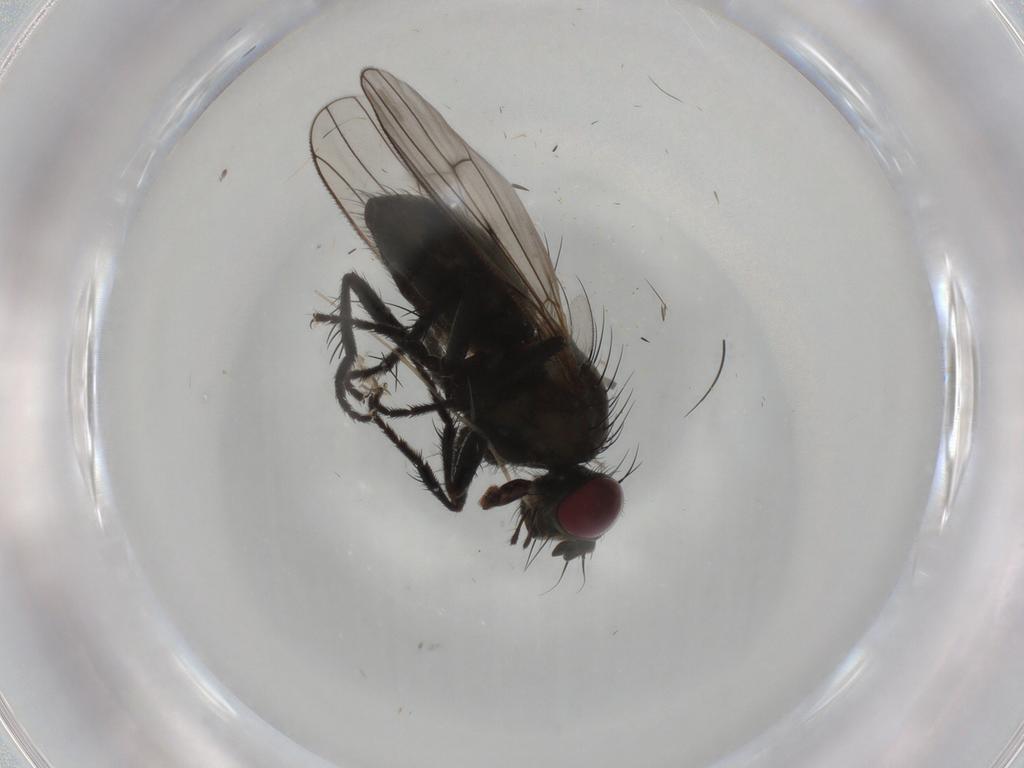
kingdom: Animalia
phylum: Arthropoda
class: Insecta
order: Diptera
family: Muscidae
